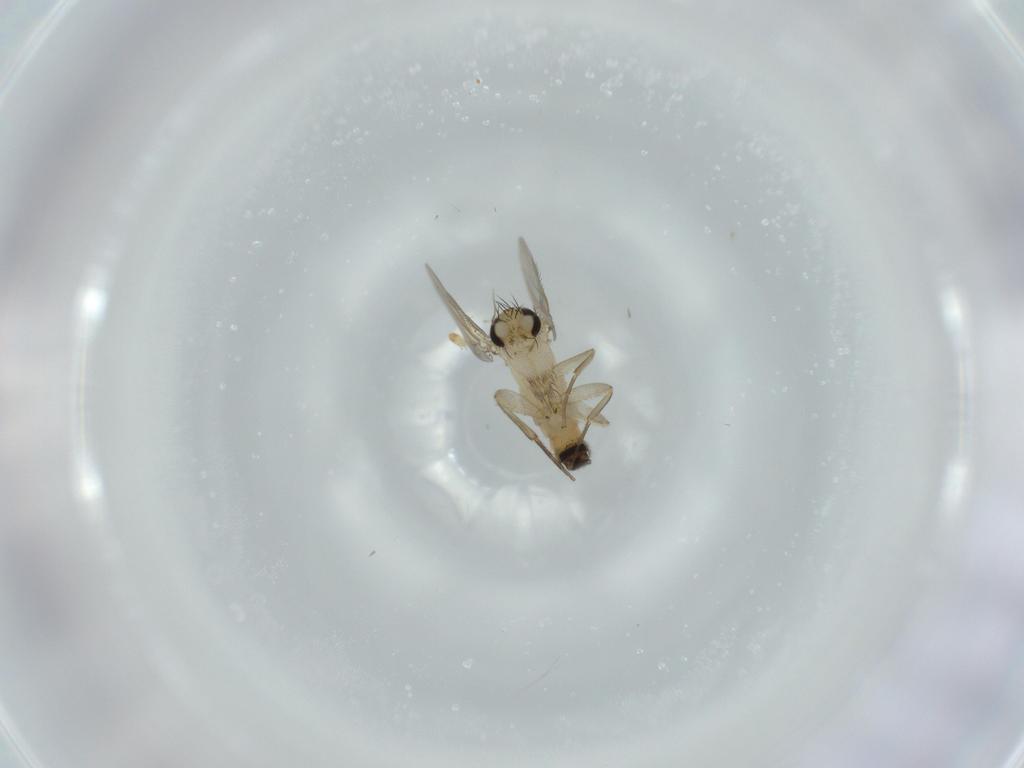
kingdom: Animalia
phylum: Arthropoda
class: Insecta
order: Diptera
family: Phoridae
